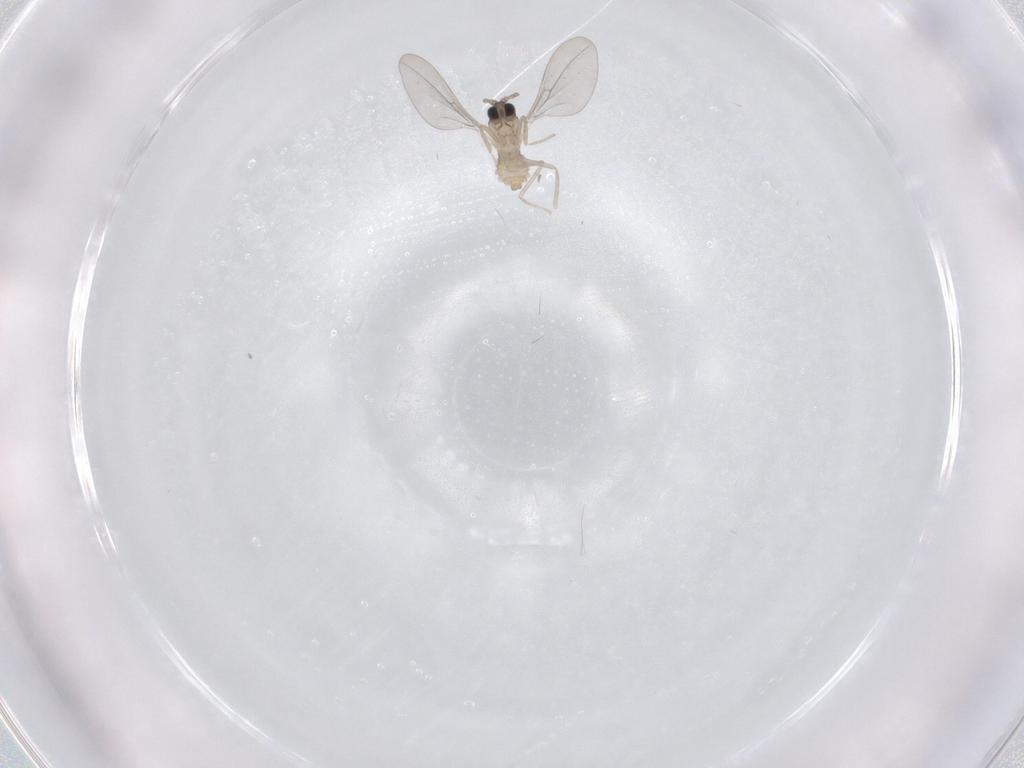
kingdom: Animalia
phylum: Arthropoda
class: Insecta
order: Diptera
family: Cecidomyiidae
